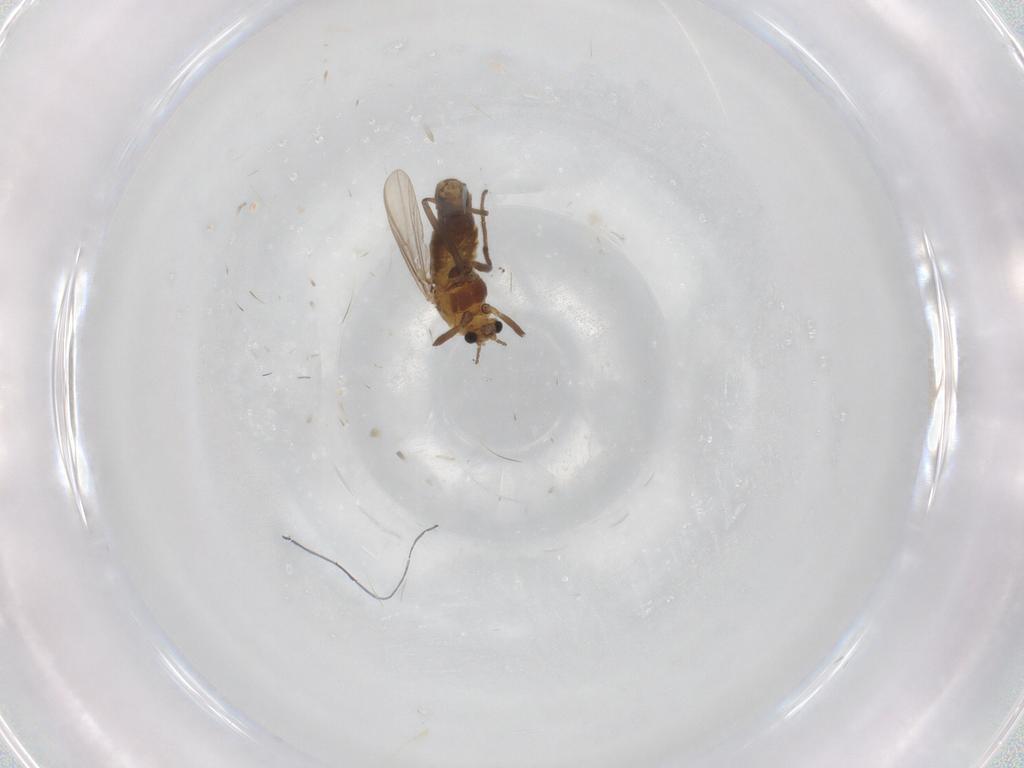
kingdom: Animalia
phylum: Arthropoda
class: Insecta
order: Diptera
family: Chironomidae
